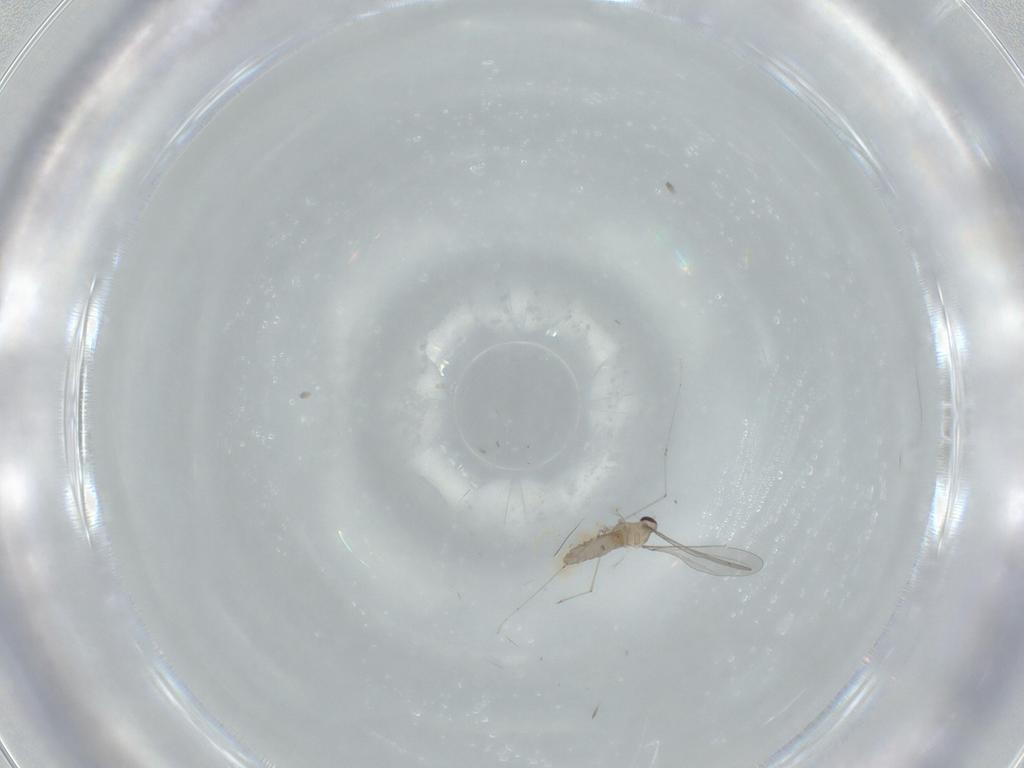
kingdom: Animalia
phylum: Arthropoda
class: Insecta
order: Diptera
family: Cecidomyiidae
